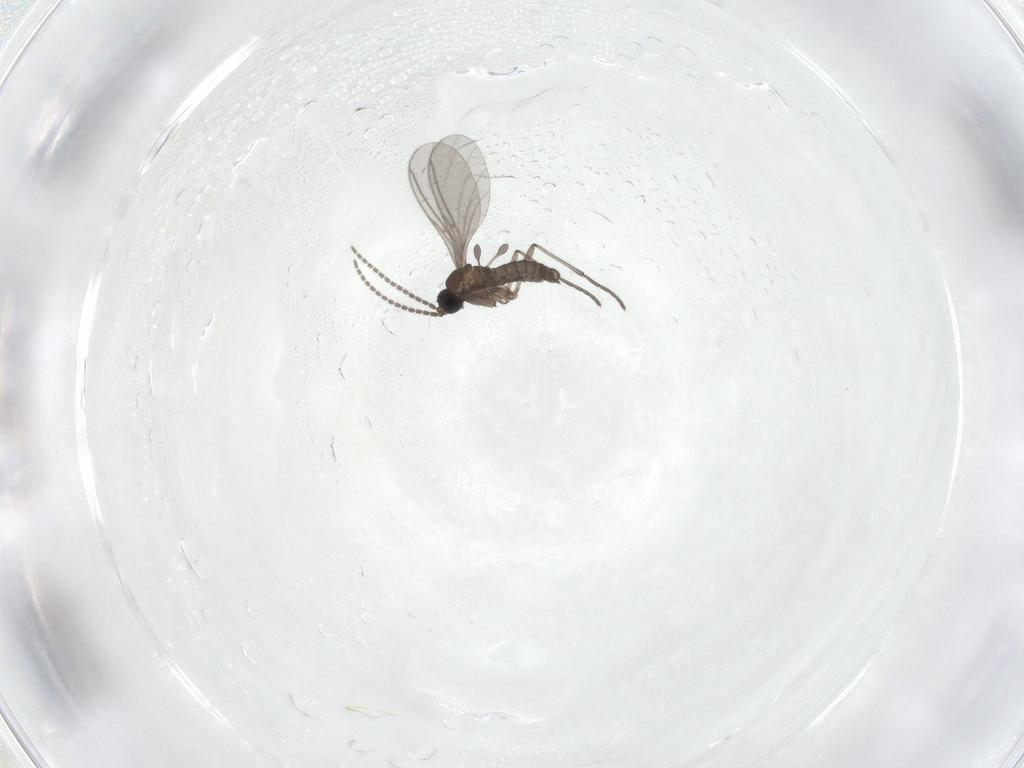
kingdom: Animalia
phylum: Arthropoda
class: Insecta
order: Diptera
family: Sciaridae
